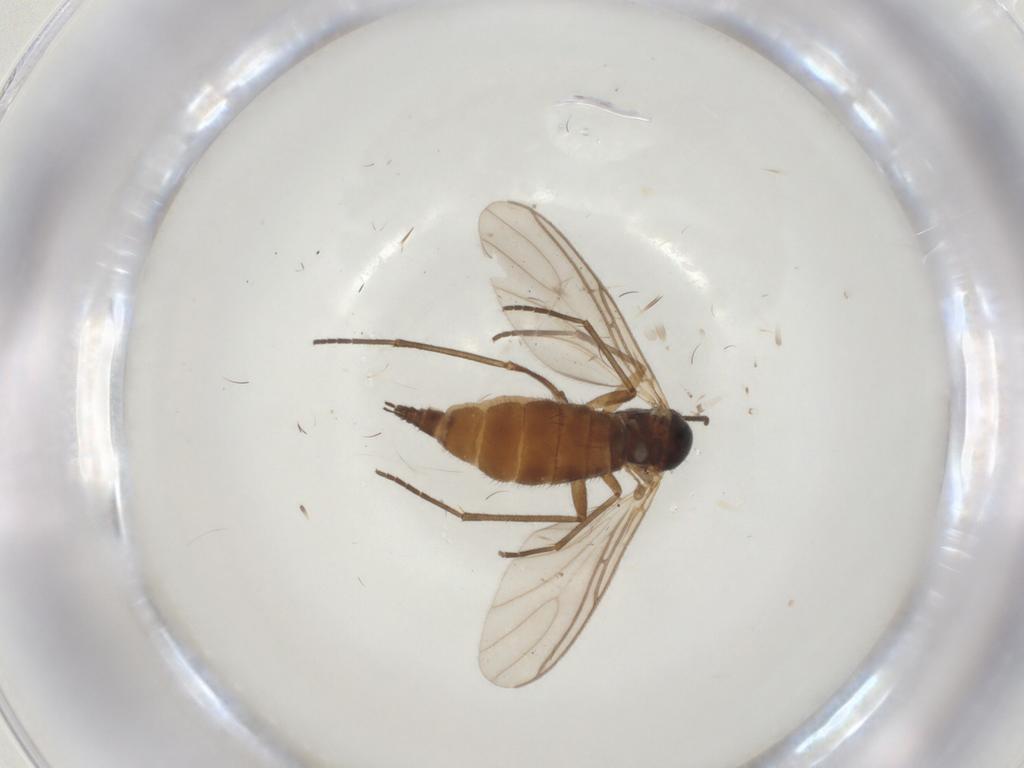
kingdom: Animalia
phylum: Arthropoda
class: Insecta
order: Diptera
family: Sciaridae
